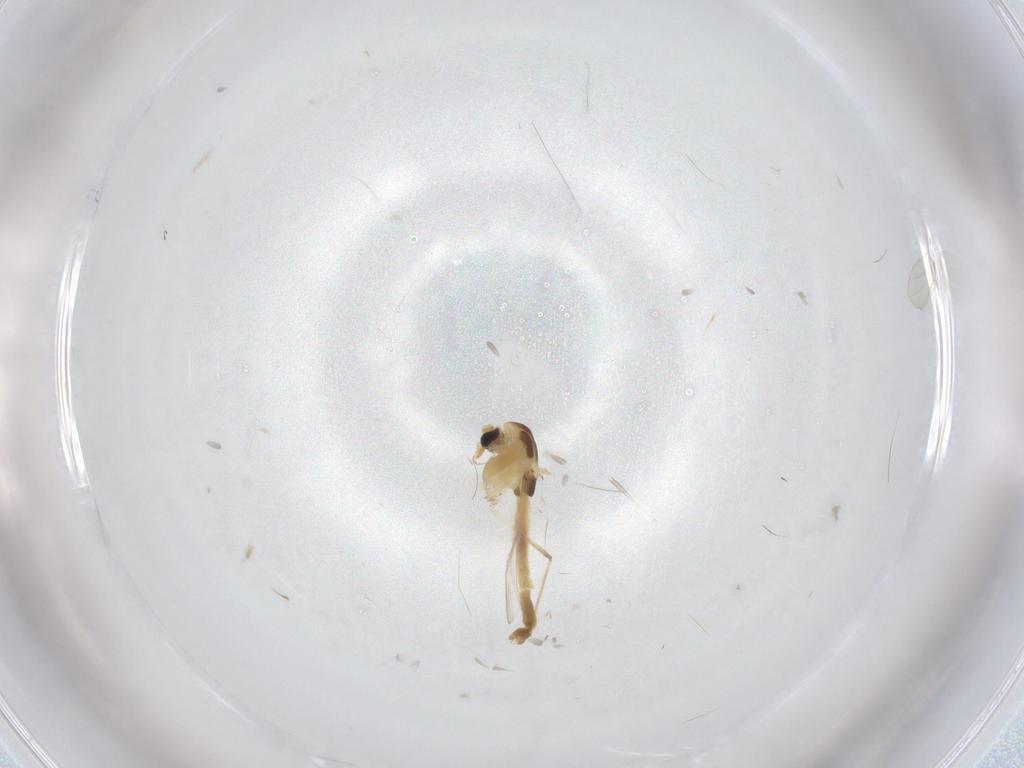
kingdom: Animalia
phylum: Arthropoda
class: Insecta
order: Diptera
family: Chironomidae
